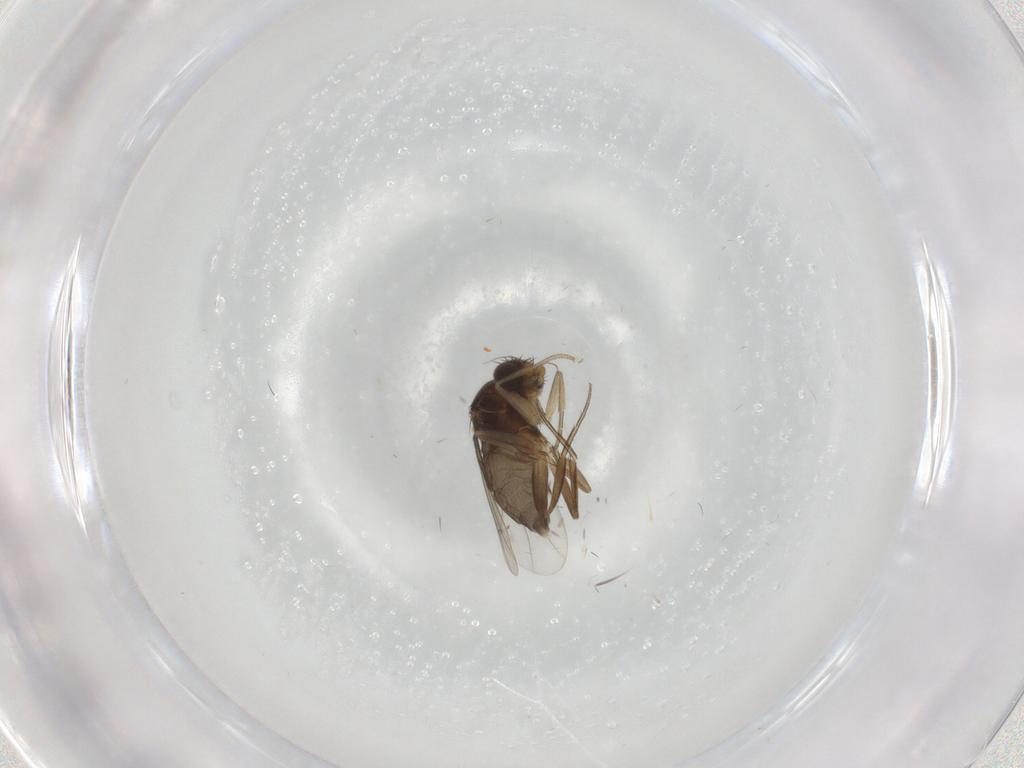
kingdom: Animalia
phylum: Arthropoda
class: Insecta
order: Diptera
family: Phoridae
